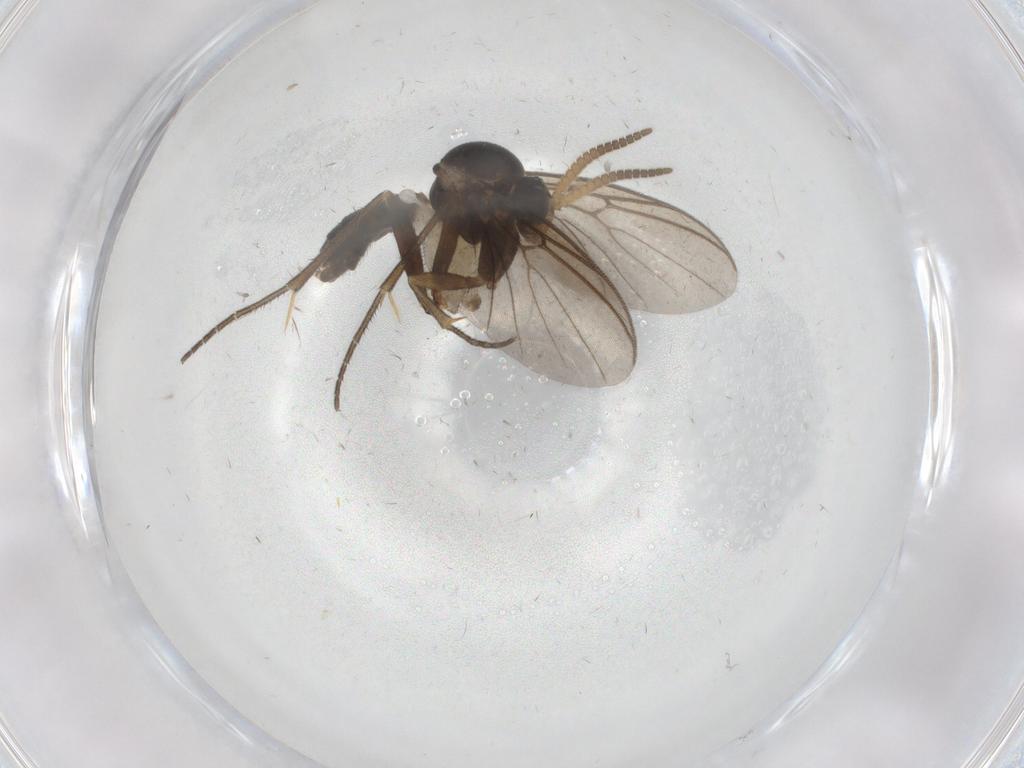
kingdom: Animalia
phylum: Arthropoda
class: Insecta
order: Diptera
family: Mycetophilidae
